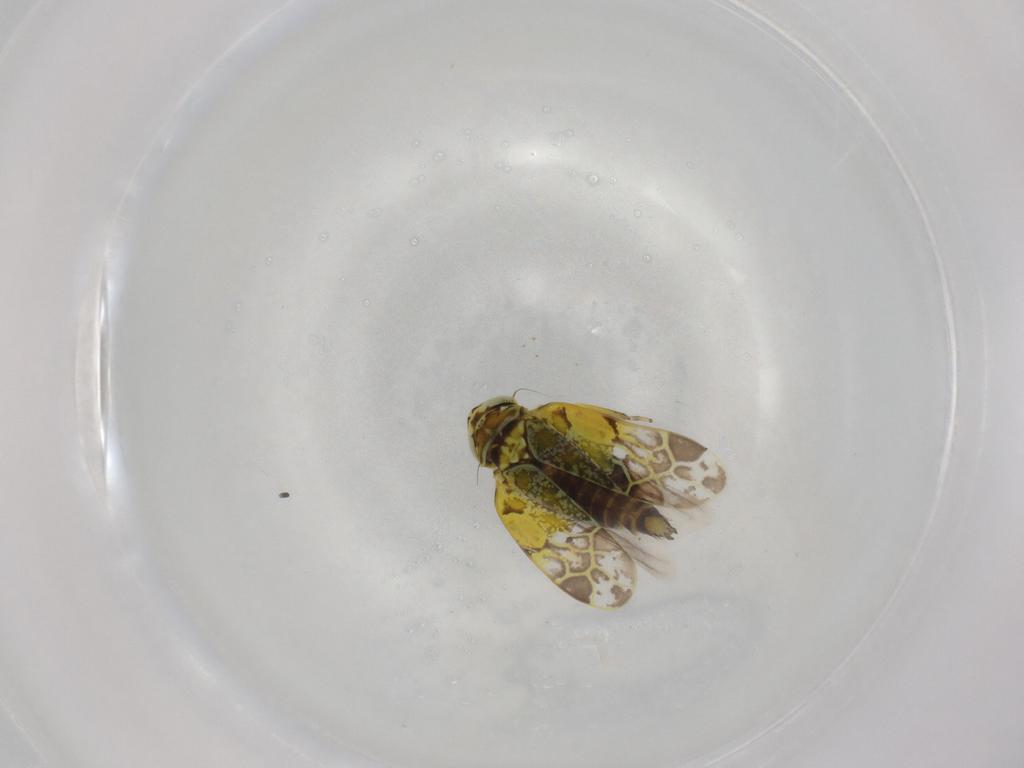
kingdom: Animalia
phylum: Arthropoda
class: Insecta
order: Hemiptera
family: Cicadellidae
